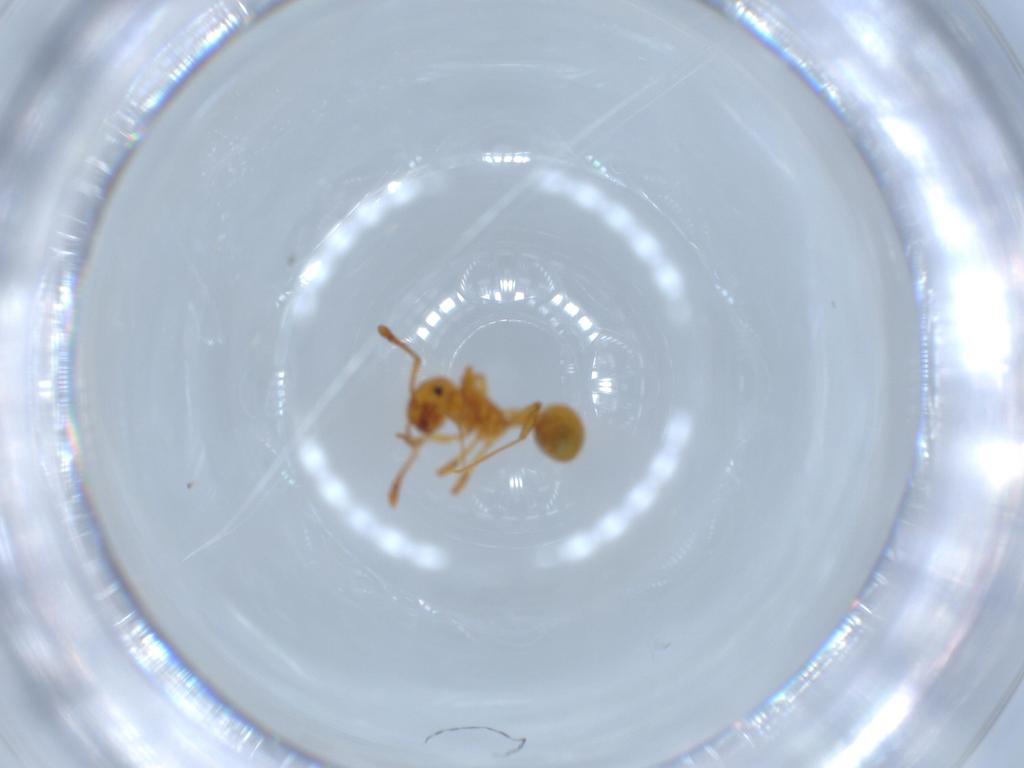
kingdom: Animalia
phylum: Arthropoda
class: Insecta
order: Hymenoptera
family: Formicidae
